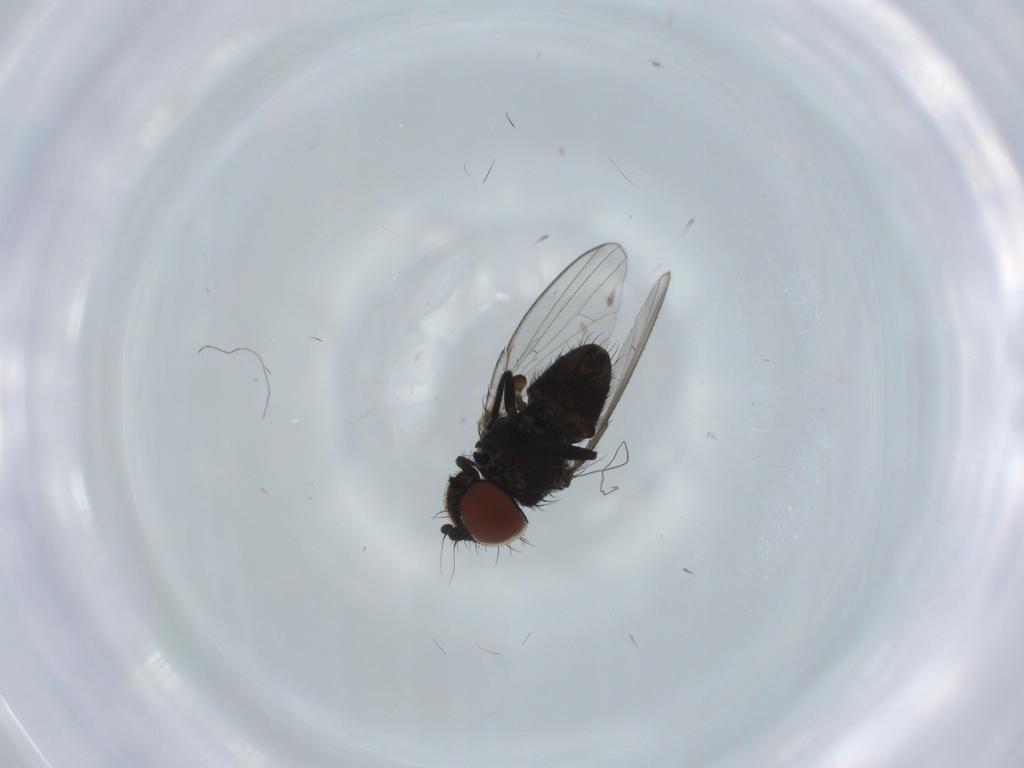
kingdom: Animalia
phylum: Arthropoda
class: Insecta
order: Diptera
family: Milichiidae
